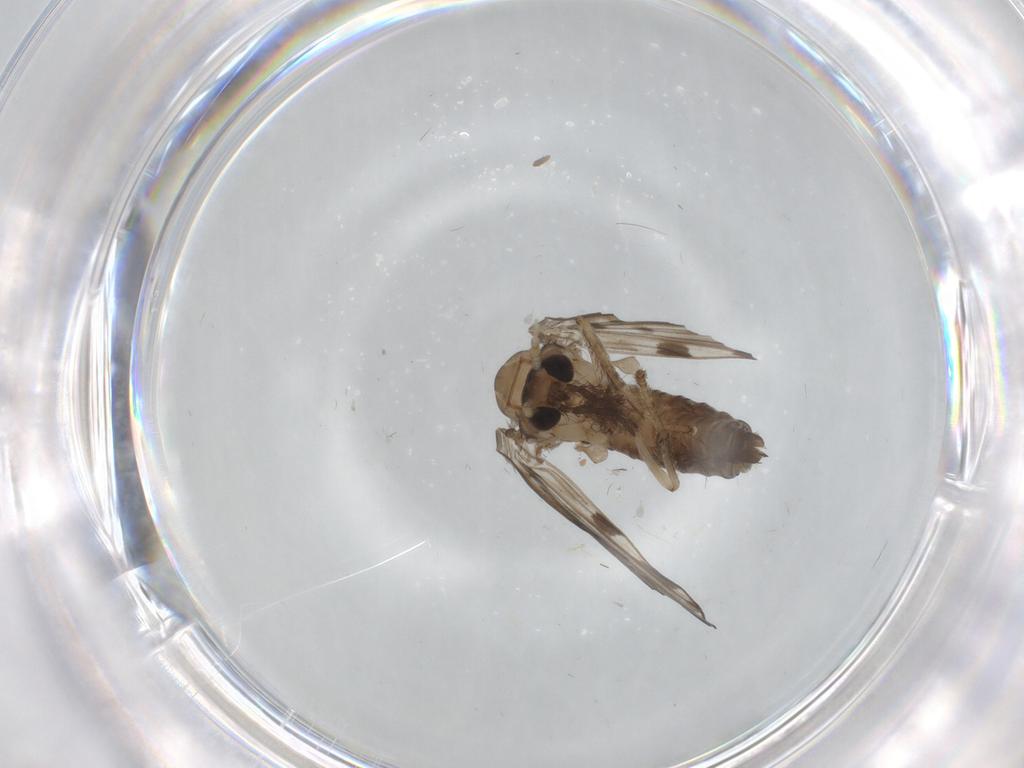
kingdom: Animalia
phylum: Arthropoda
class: Insecta
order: Diptera
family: Psychodidae
